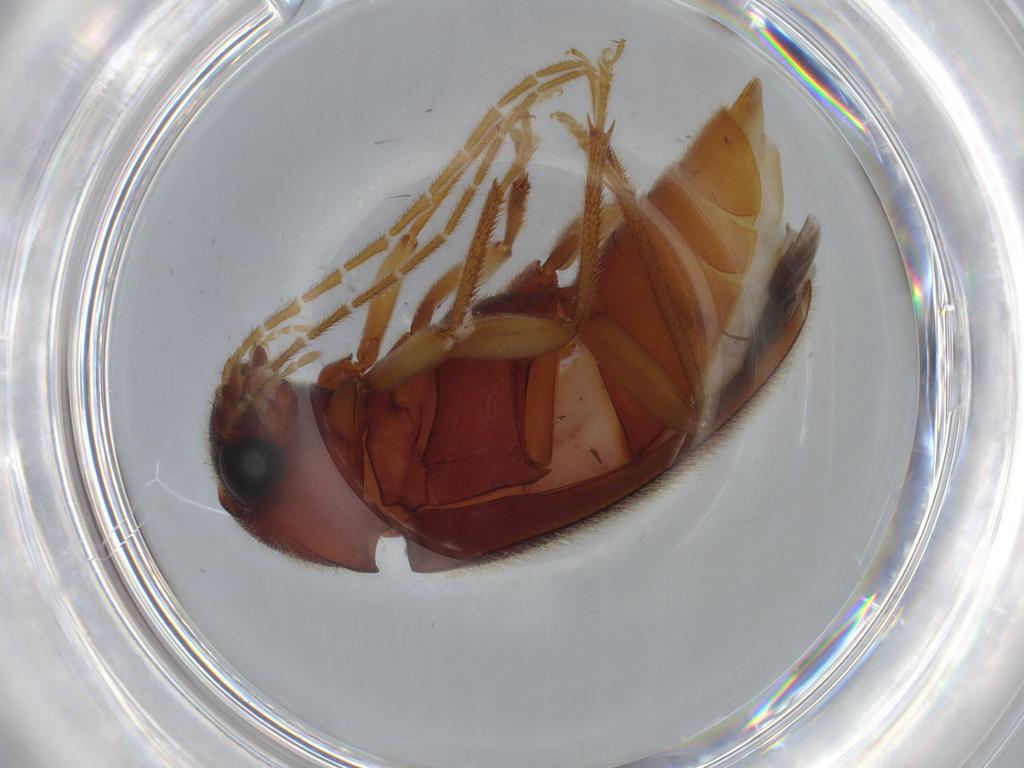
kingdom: Animalia
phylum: Arthropoda
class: Insecta
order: Coleoptera
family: Ptilodactylidae
